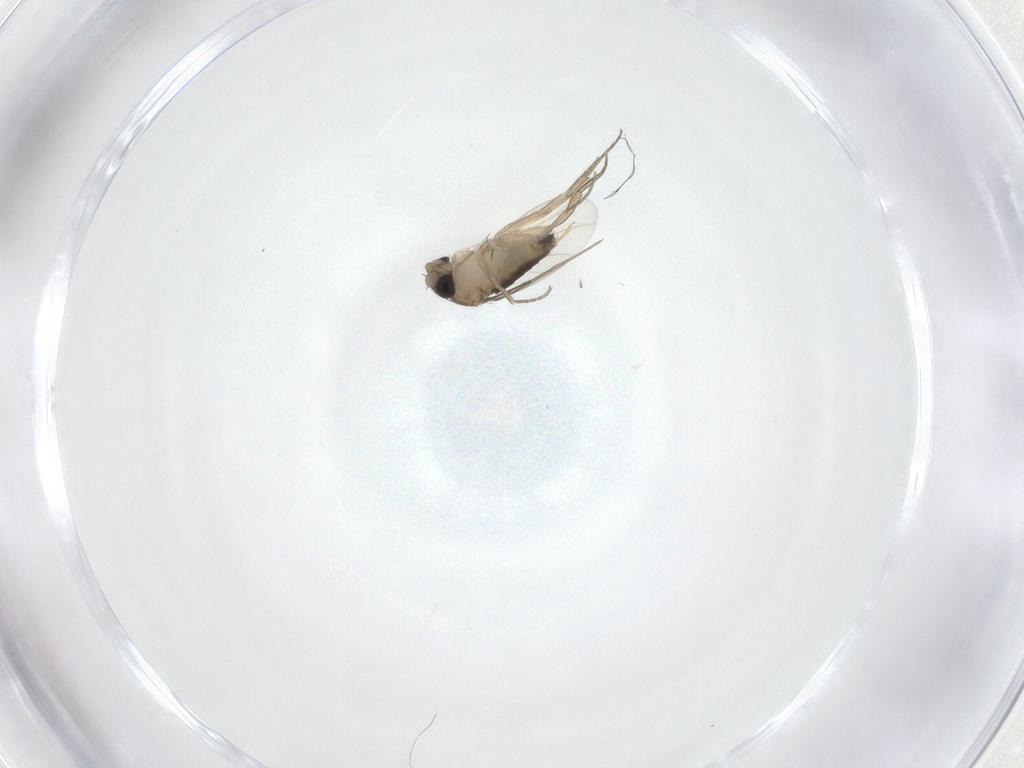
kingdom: Animalia
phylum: Arthropoda
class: Insecta
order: Diptera
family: Phoridae
